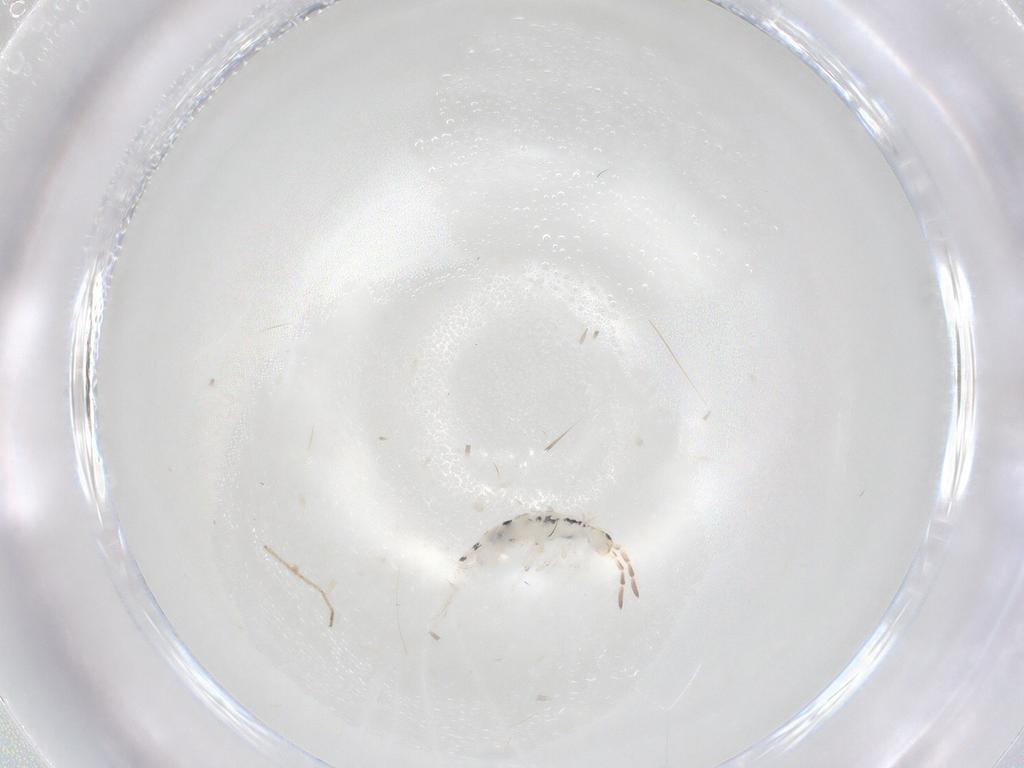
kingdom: Animalia
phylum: Arthropoda
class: Collembola
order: Entomobryomorpha
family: Entomobryidae
